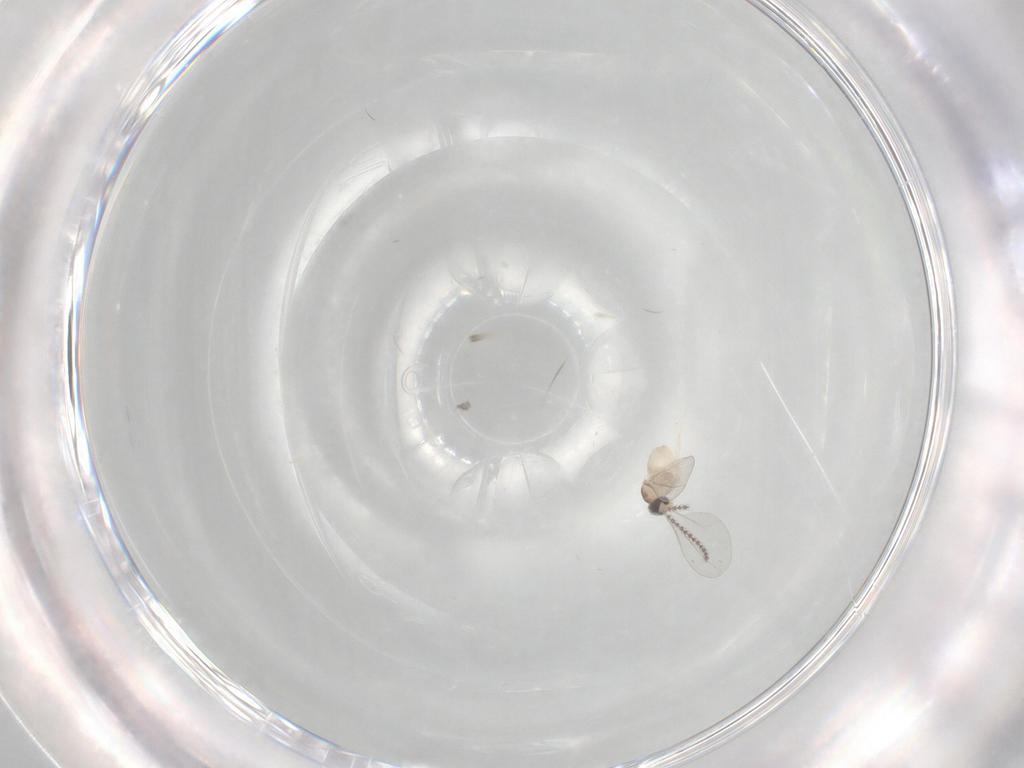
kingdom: Animalia
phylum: Arthropoda
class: Insecta
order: Diptera
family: Cecidomyiidae
